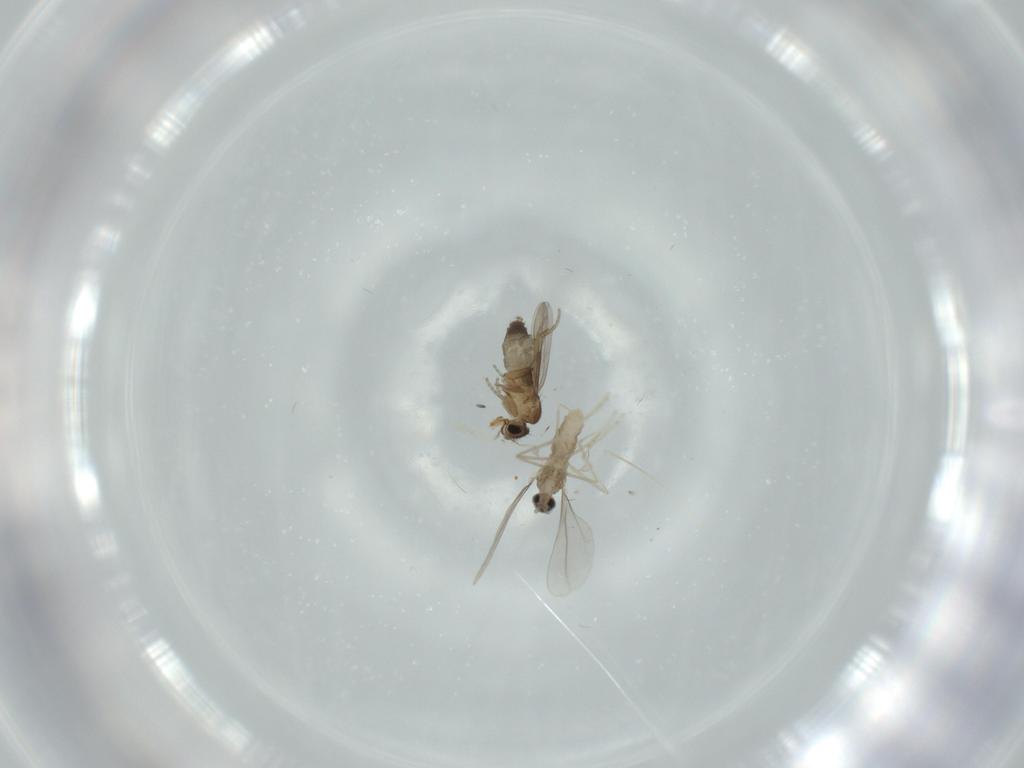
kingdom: Animalia
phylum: Arthropoda
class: Insecta
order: Diptera
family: Cecidomyiidae
